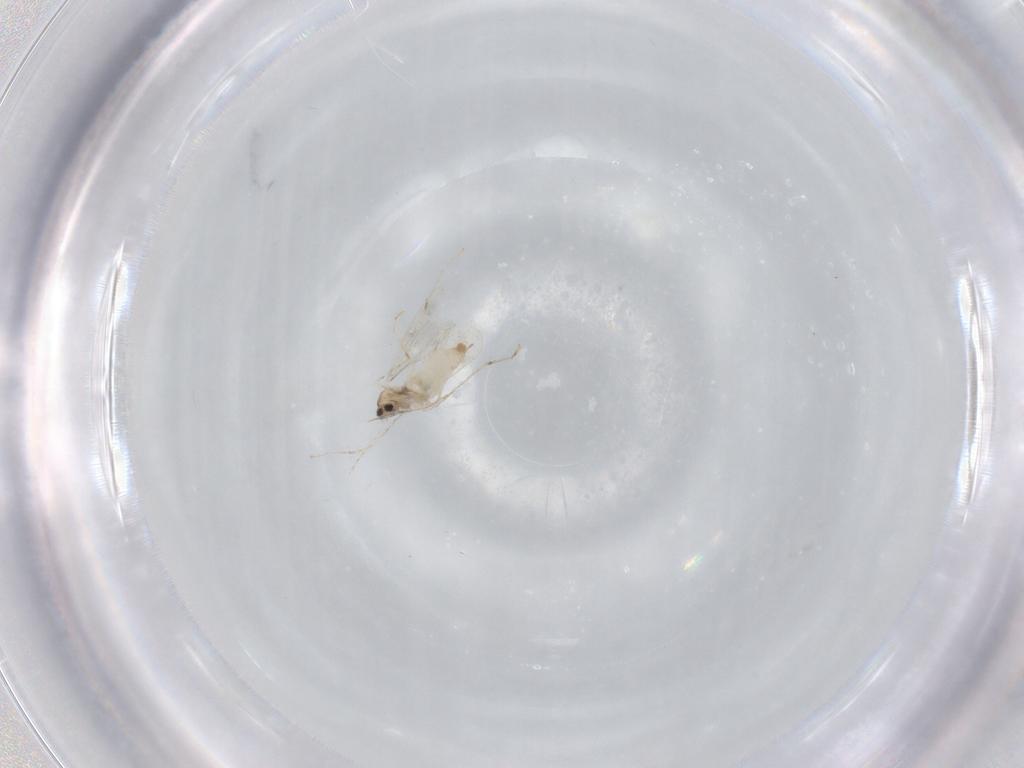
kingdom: Animalia
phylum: Arthropoda
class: Insecta
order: Diptera
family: Cecidomyiidae
